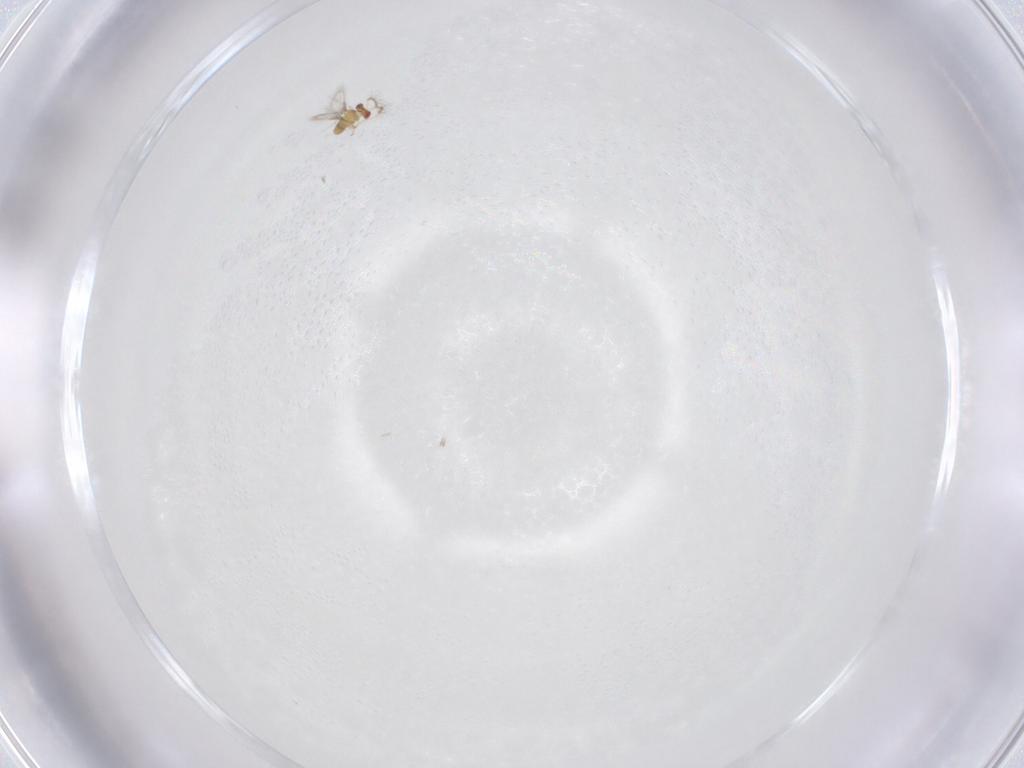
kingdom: Animalia
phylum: Arthropoda
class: Insecta
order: Hymenoptera
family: Trichogrammatidae
